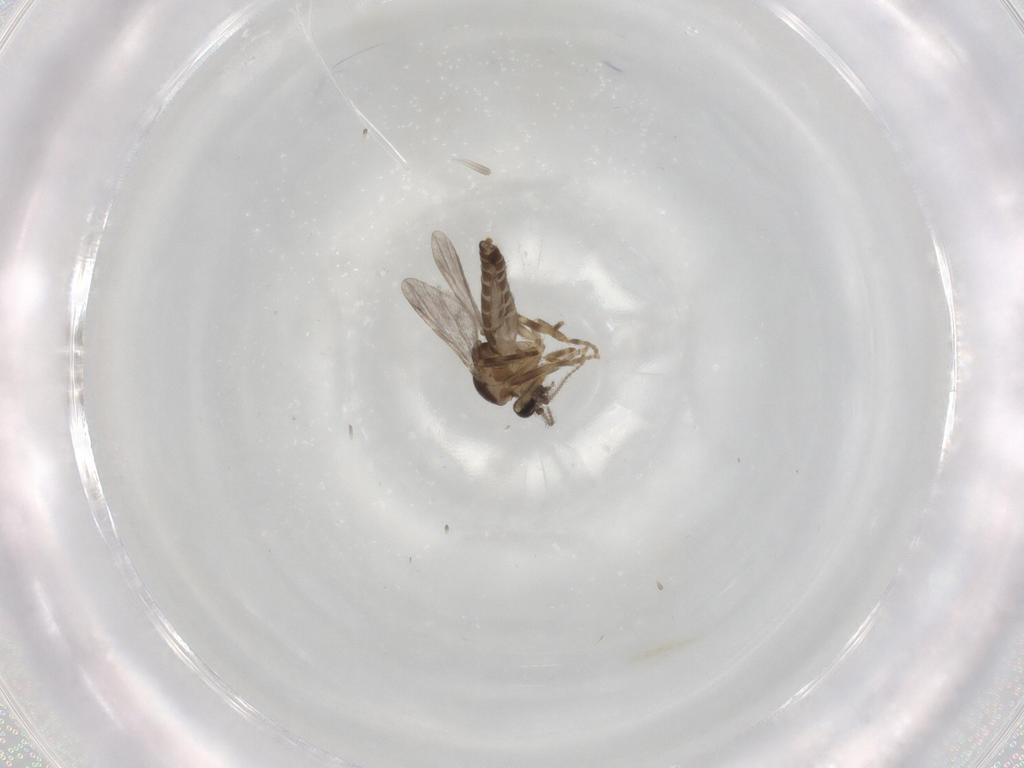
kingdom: Animalia
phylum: Arthropoda
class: Insecta
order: Diptera
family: Ceratopogonidae
